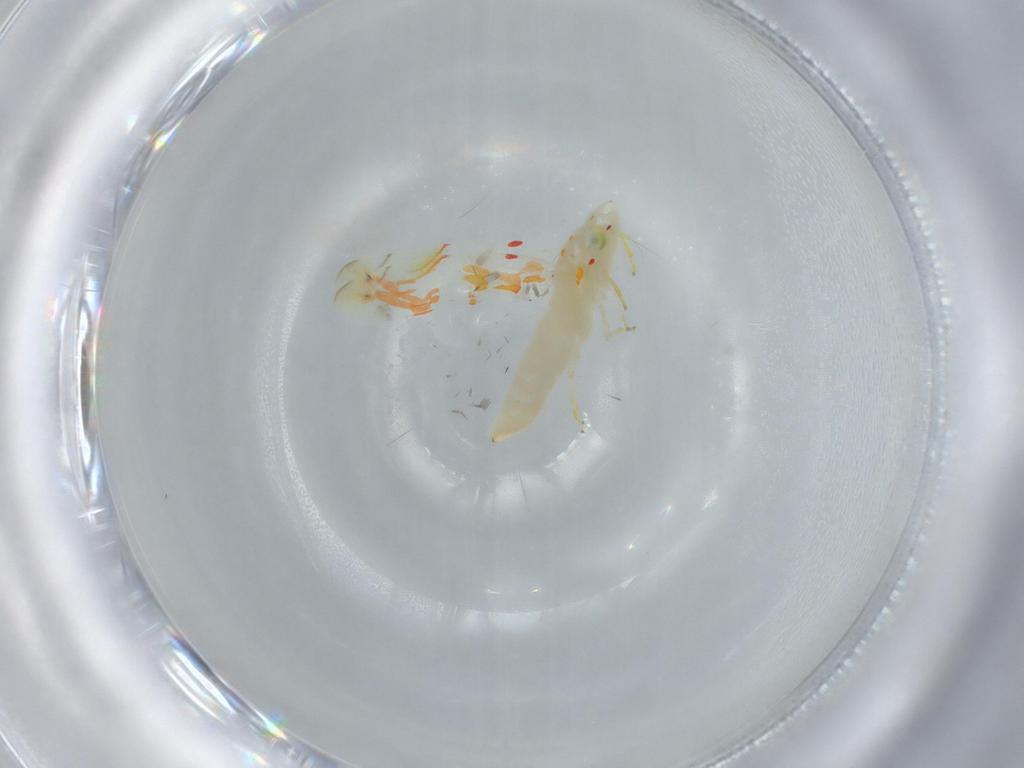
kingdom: Animalia
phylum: Arthropoda
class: Insecta
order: Hemiptera
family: Cicadellidae
